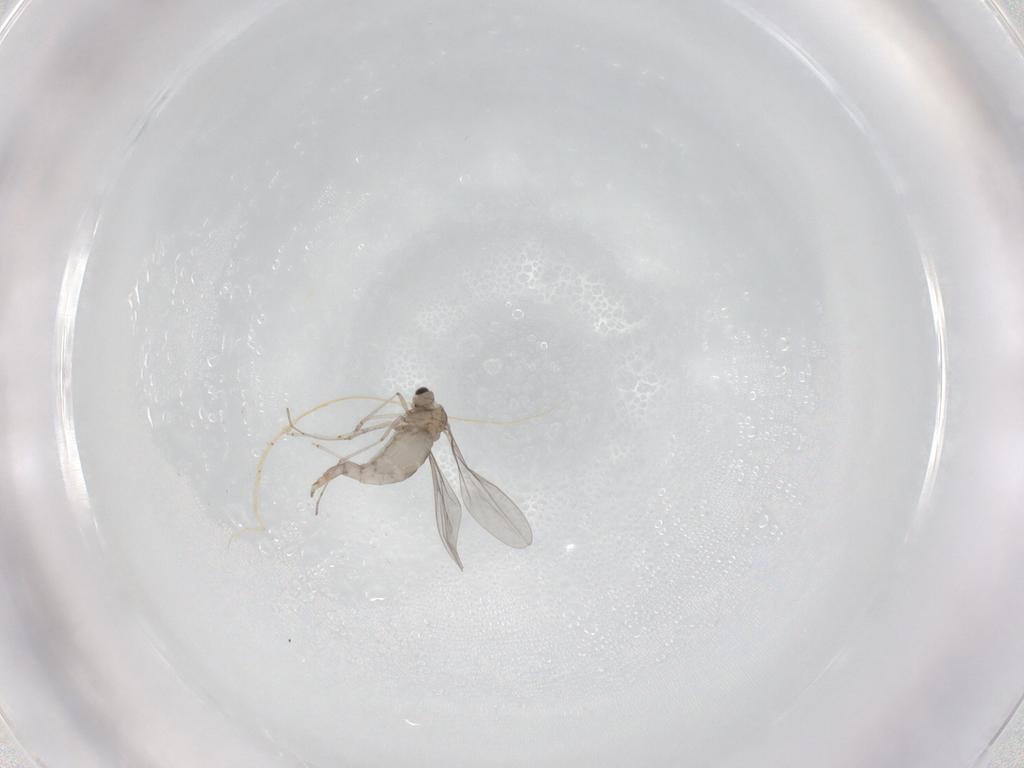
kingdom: Animalia
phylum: Arthropoda
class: Insecta
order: Diptera
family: Cecidomyiidae
